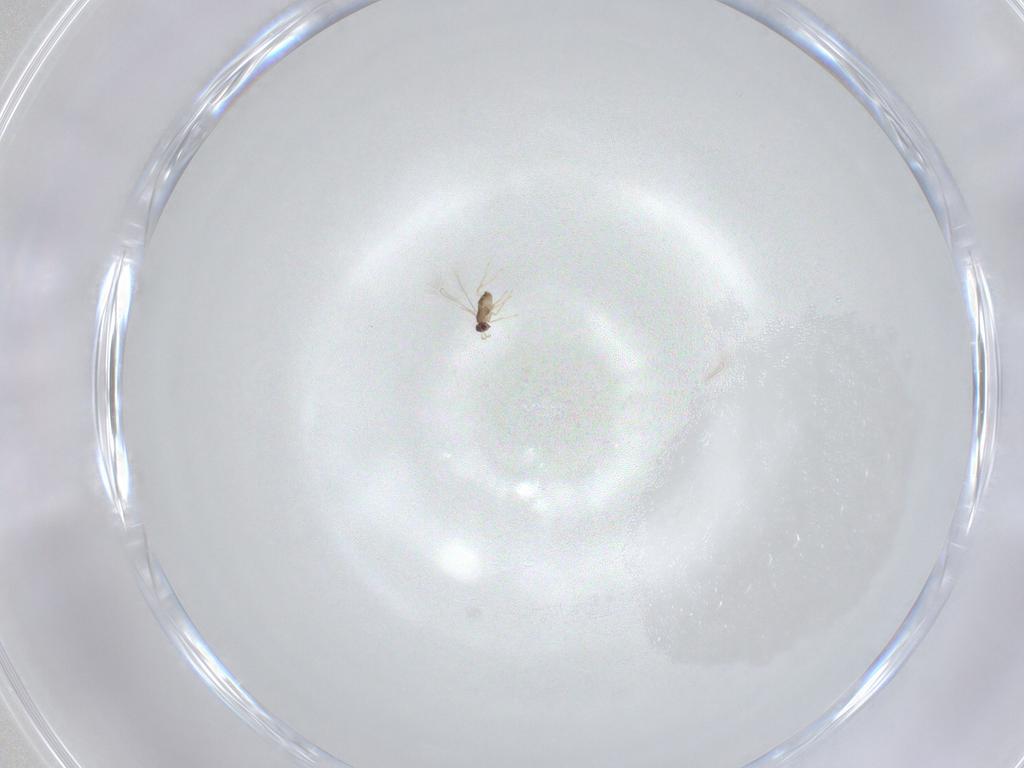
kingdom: Animalia
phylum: Arthropoda
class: Insecta
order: Hymenoptera
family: Mymaridae
